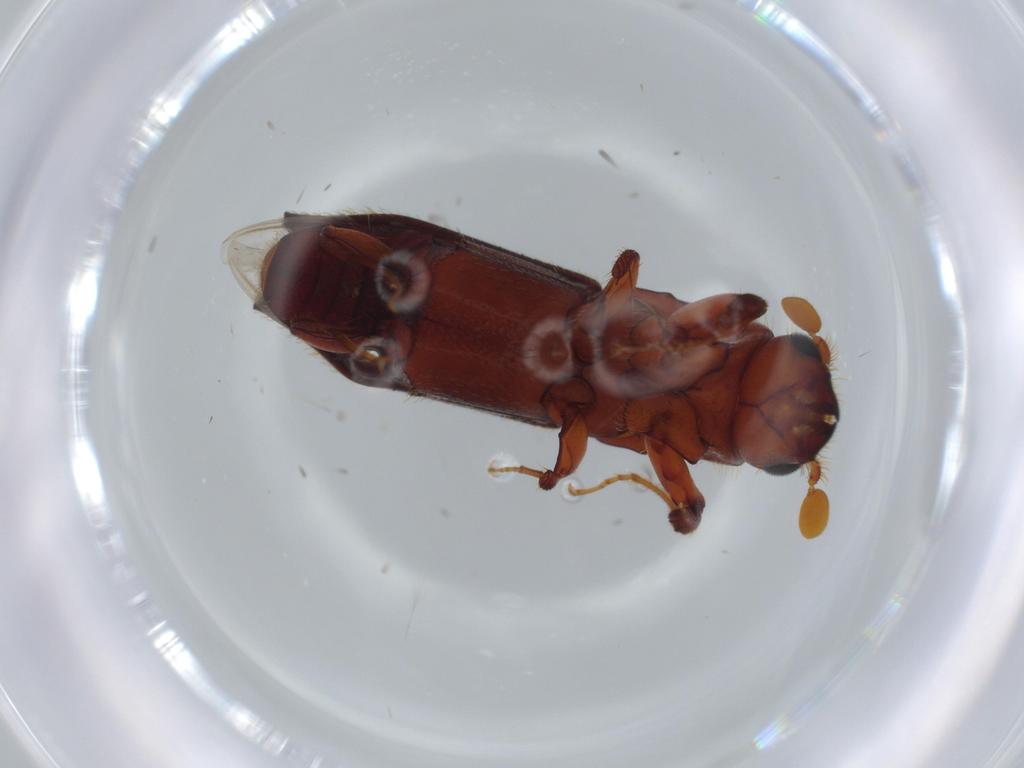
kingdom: Animalia
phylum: Arthropoda
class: Insecta
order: Coleoptera
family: Curculionidae
